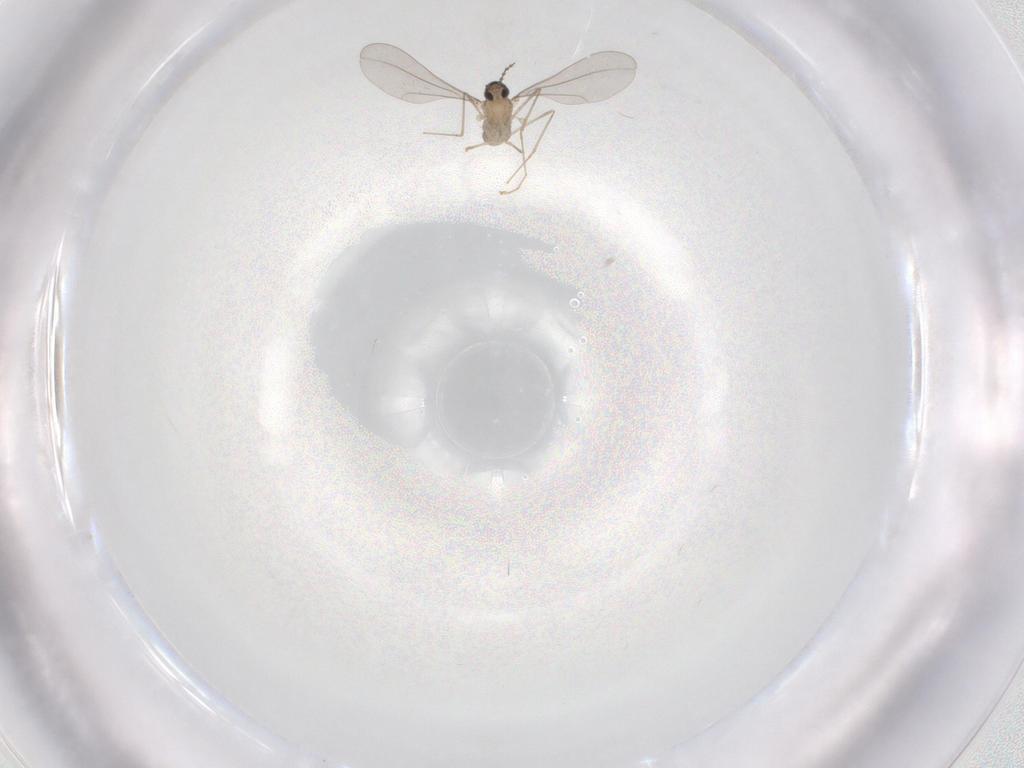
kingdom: Animalia
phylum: Arthropoda
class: Insecta
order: Diptera
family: Cecidomyiidae
